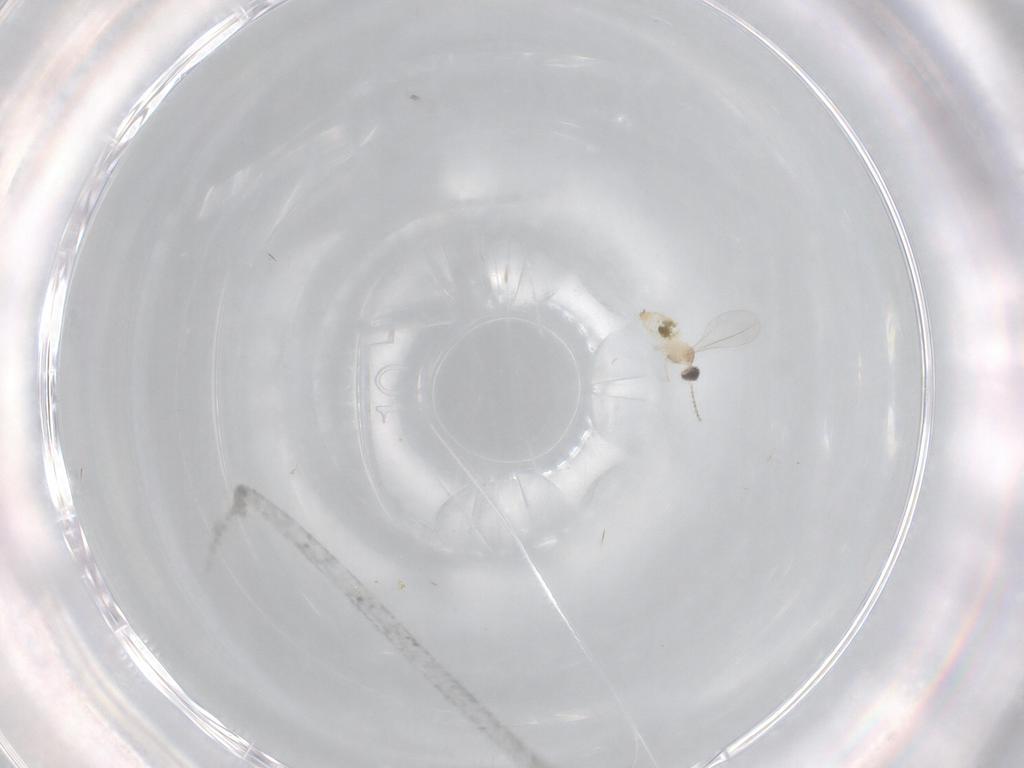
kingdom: Animalia
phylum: Arthropoda
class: Insecta
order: Diptera
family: Cecidomyiidae
